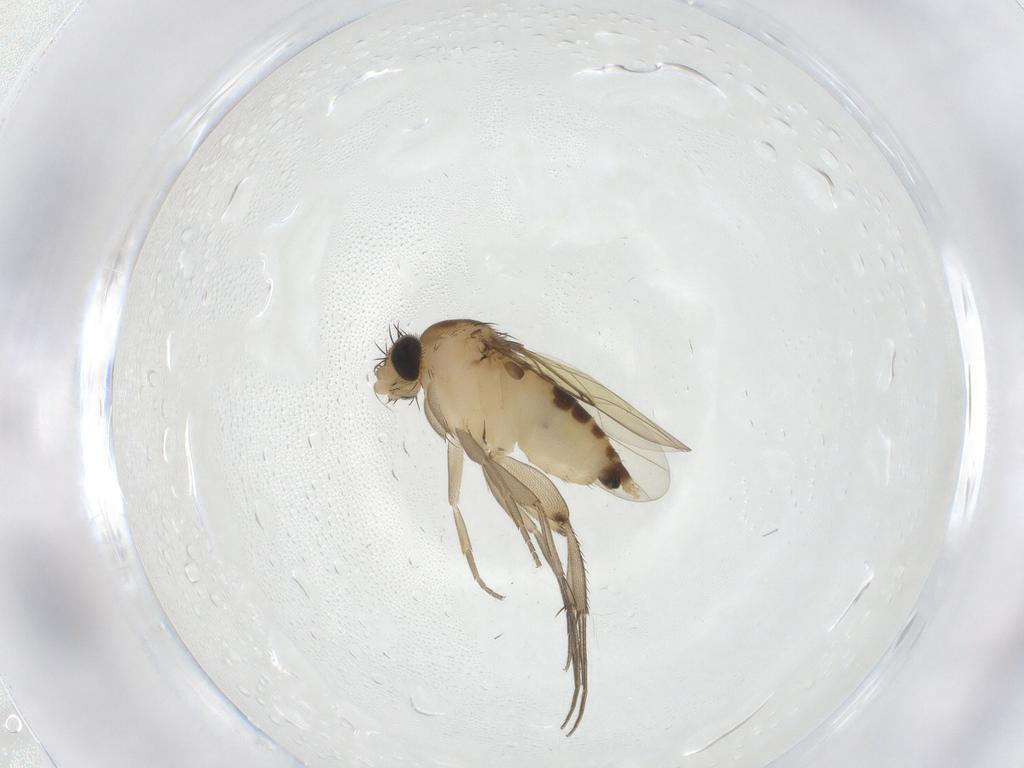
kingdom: Animalia
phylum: Arthropoda
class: Insecta
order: Diptera
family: Phoridae
